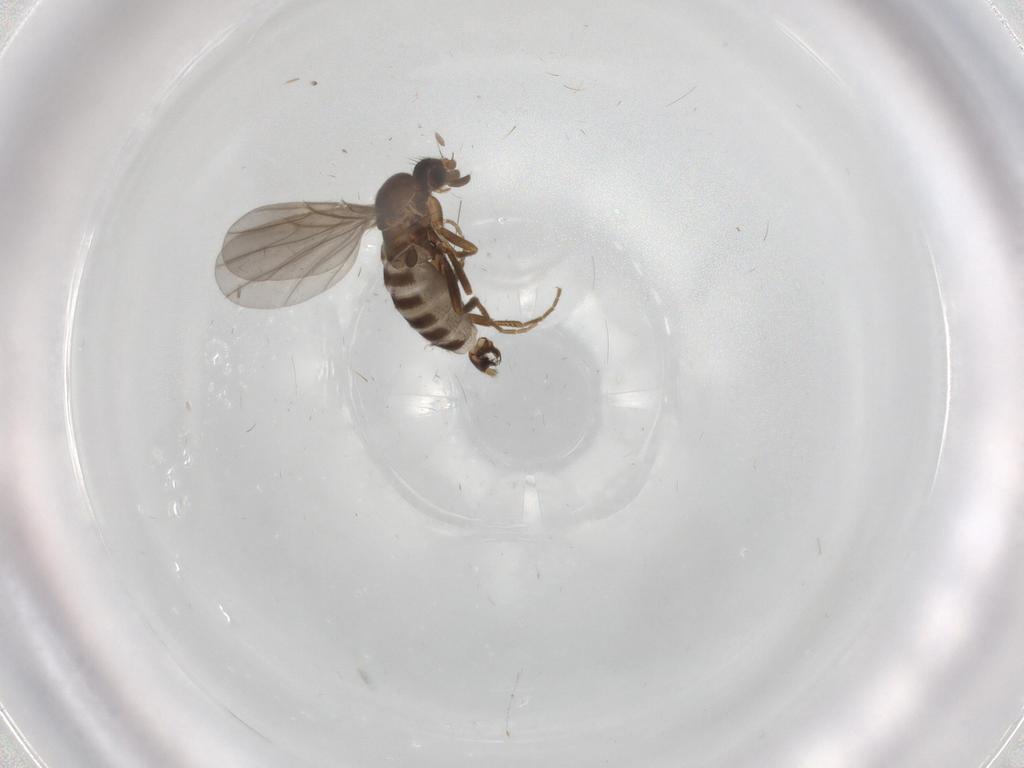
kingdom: Animalia
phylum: Arthropoda
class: Insecta
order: Diptera
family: Phoridae
